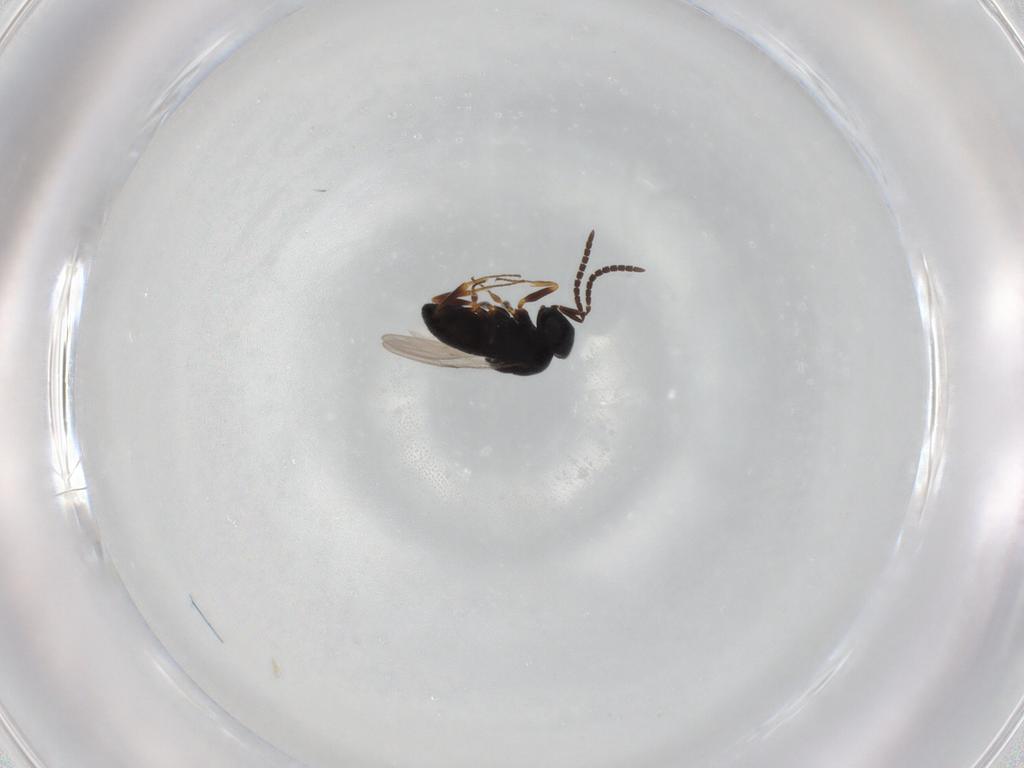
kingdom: Animalia
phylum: Arthropoda
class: Insecta
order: Hymenoptera
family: Scelionidae
